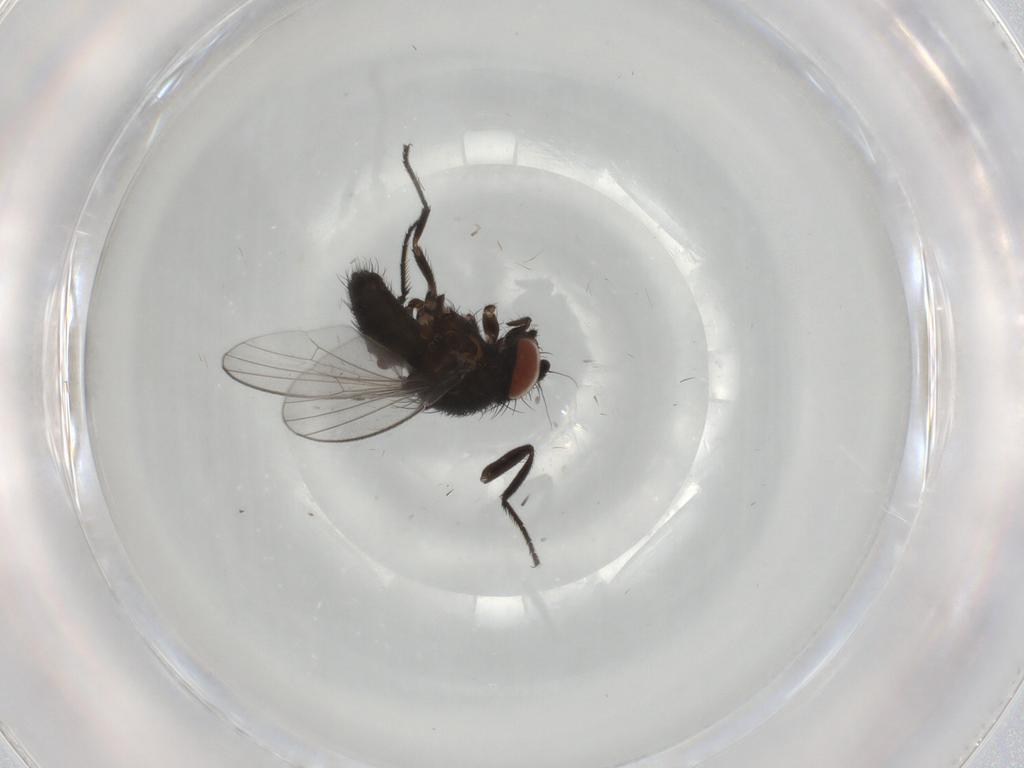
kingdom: Animalia
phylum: Arthropoda
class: Insecta
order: Diptera
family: Milichiidae
